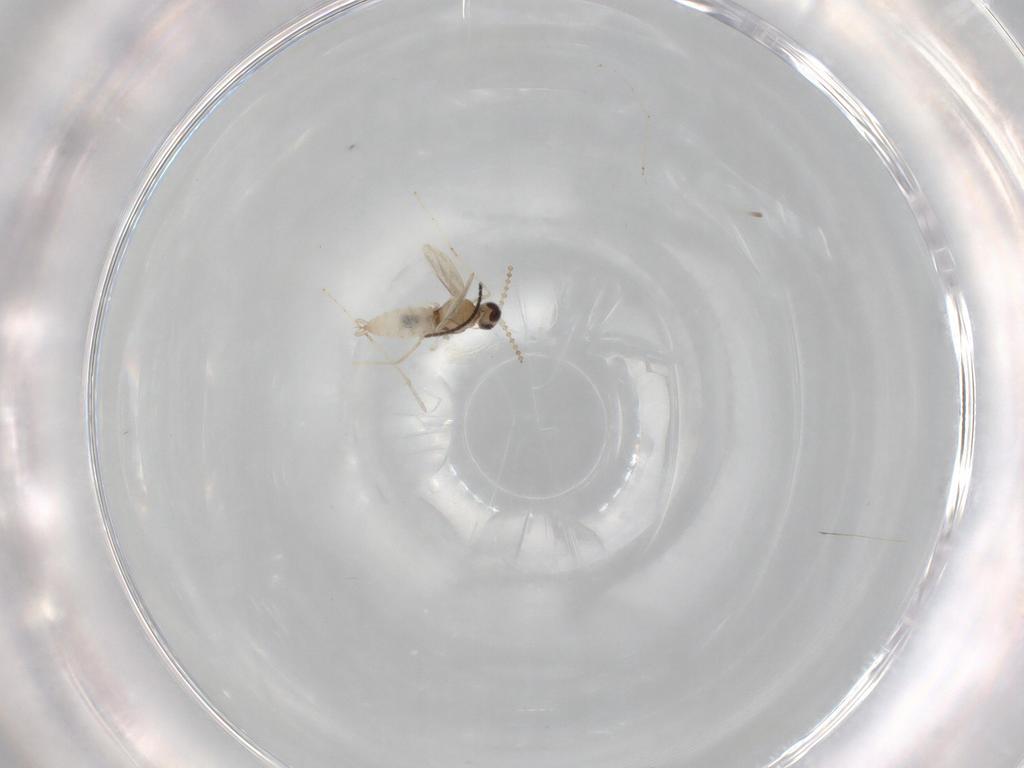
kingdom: Animalia
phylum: Arthropoda
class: Insecta
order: Diptera
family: Cecidomyiidae
